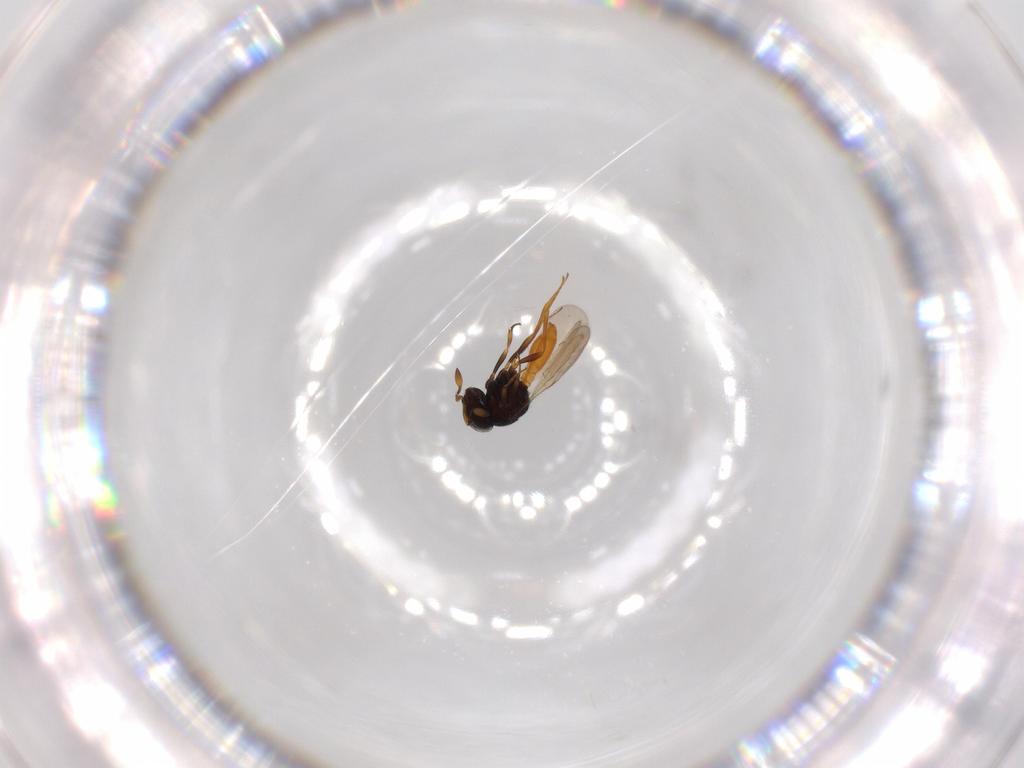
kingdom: Animalia
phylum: Arthropoda
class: Insecta
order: Hymenoptera
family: Scelionidae
